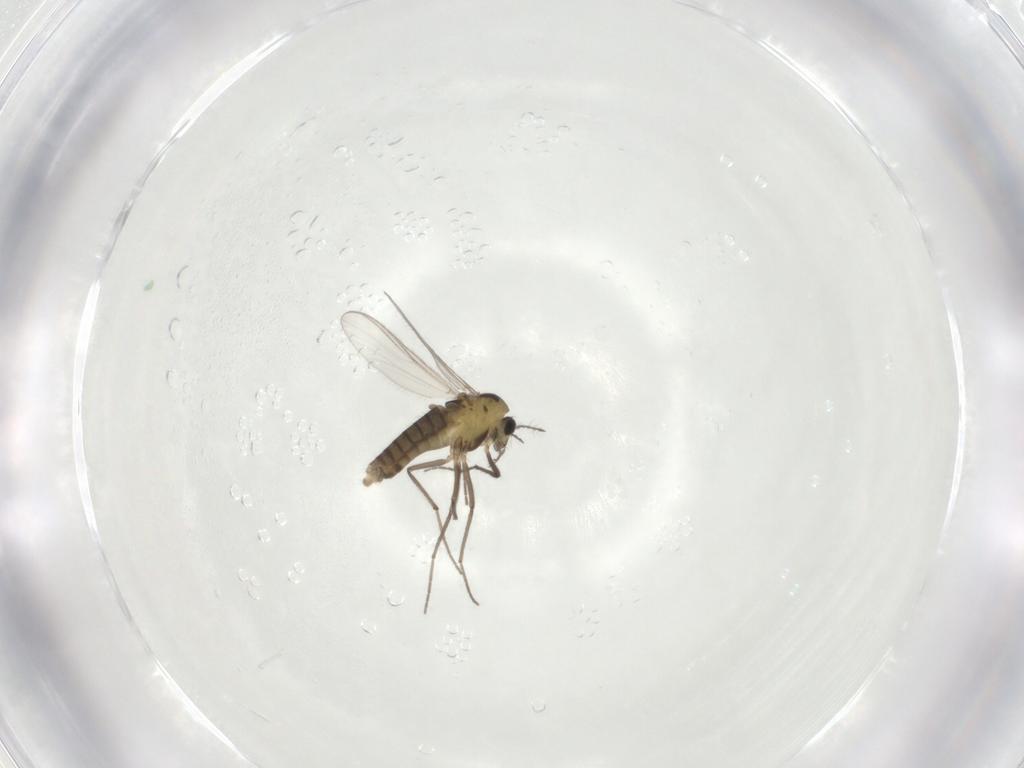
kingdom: Animalia
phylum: Arthropoda
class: Insecta
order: Diptera
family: Chironomidae
